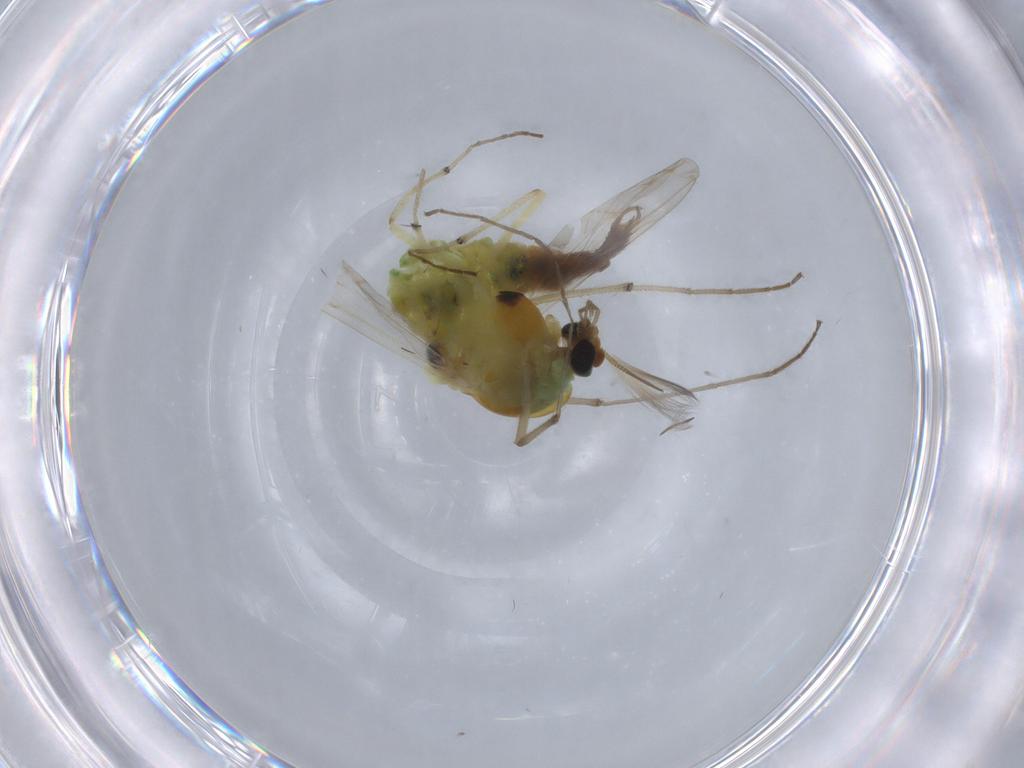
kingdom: Animalia
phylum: Arthropoda
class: Insecta
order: Diptera
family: Chironomidae
